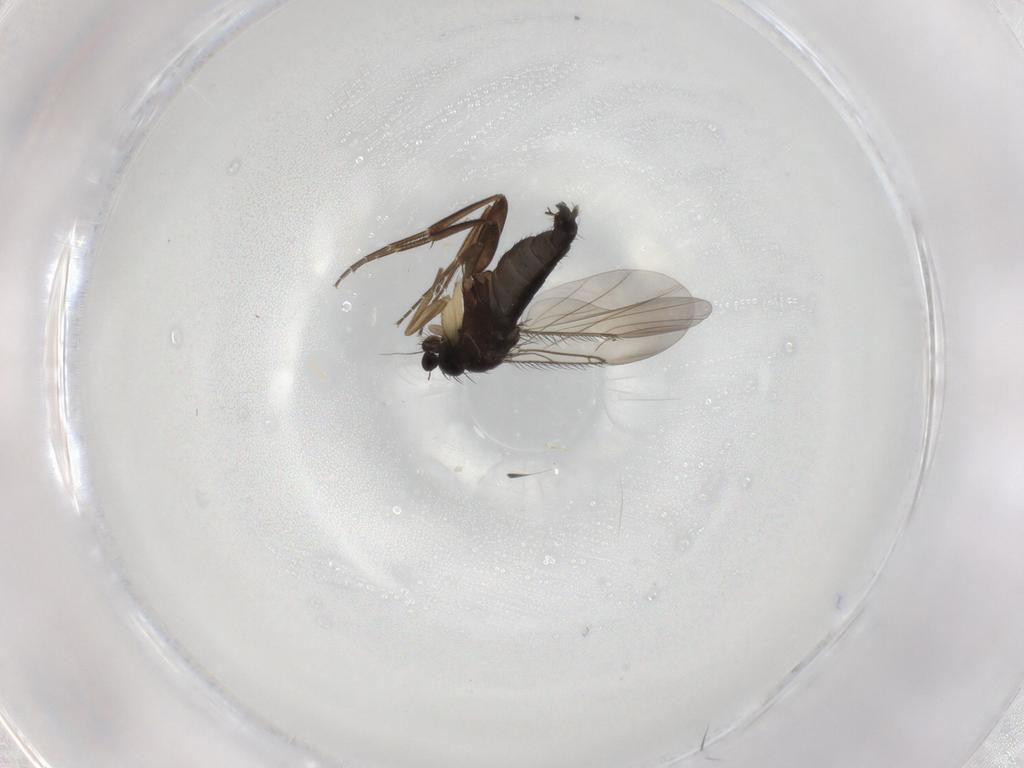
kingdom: Animalia
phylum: Arthropoda
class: Insecta
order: Diptera
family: Phoridae
